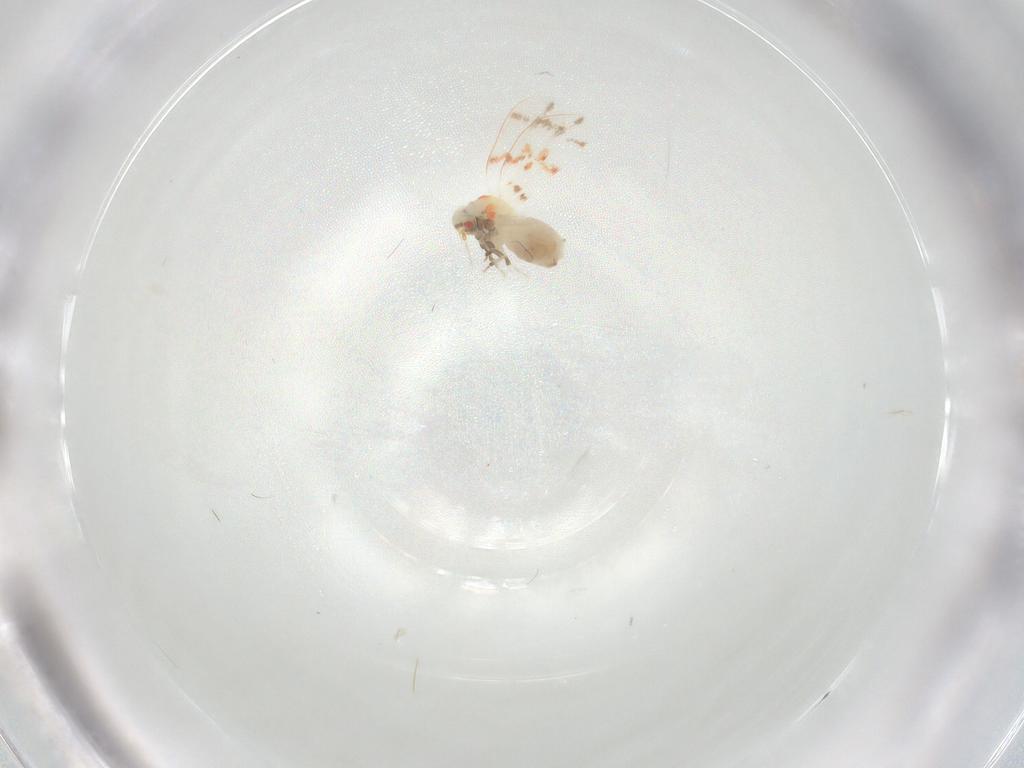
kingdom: Animalia
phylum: Arthropoda
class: Insecta
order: Hemiptera
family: Aleyrodidae
